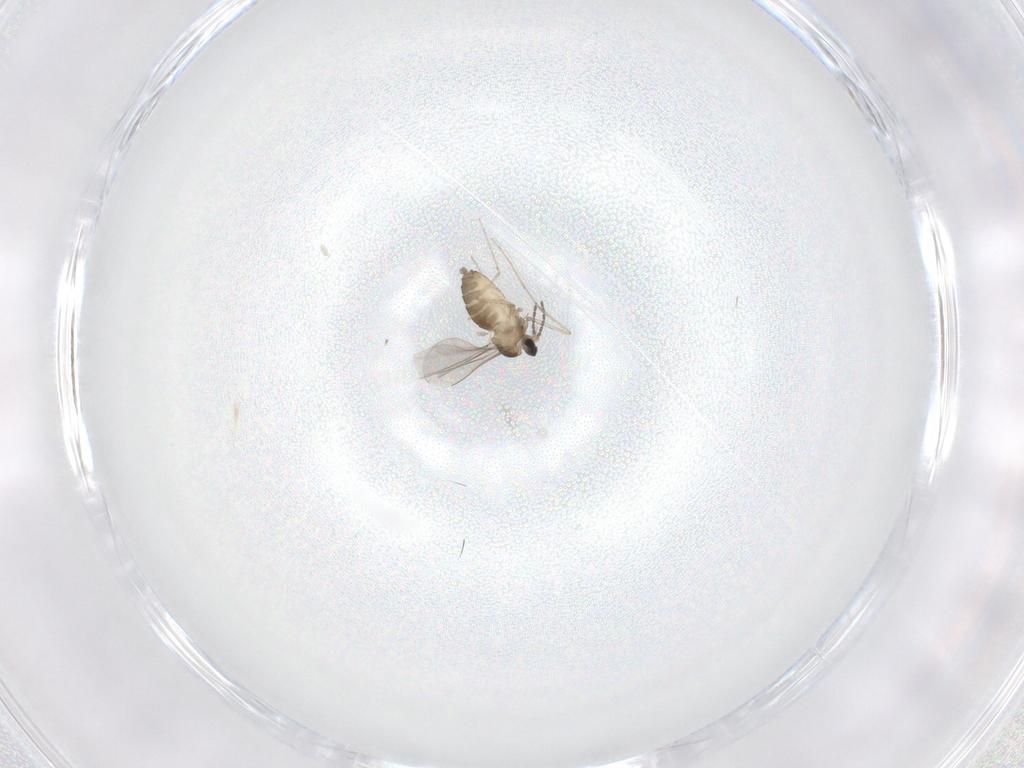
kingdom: Animalia
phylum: Arthropoda
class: Insecta
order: Diptera
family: Cecidomyiidae
